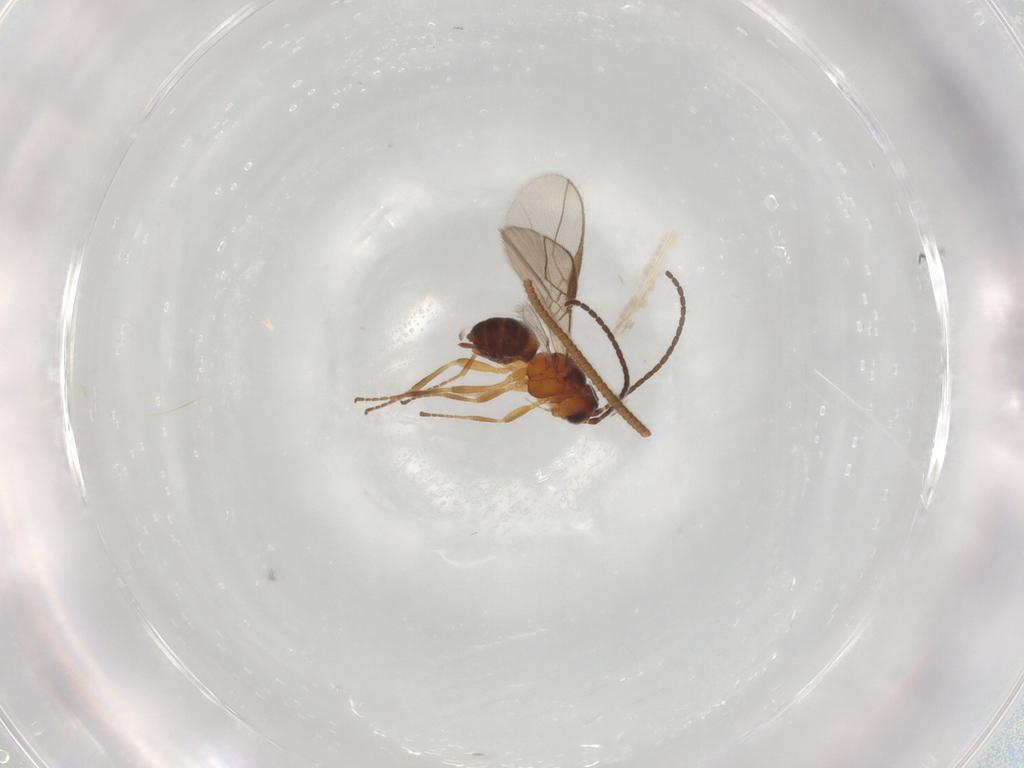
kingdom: Animalia
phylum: Arthropoda
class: Insecta
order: Hymenoptera
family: Braconidae
